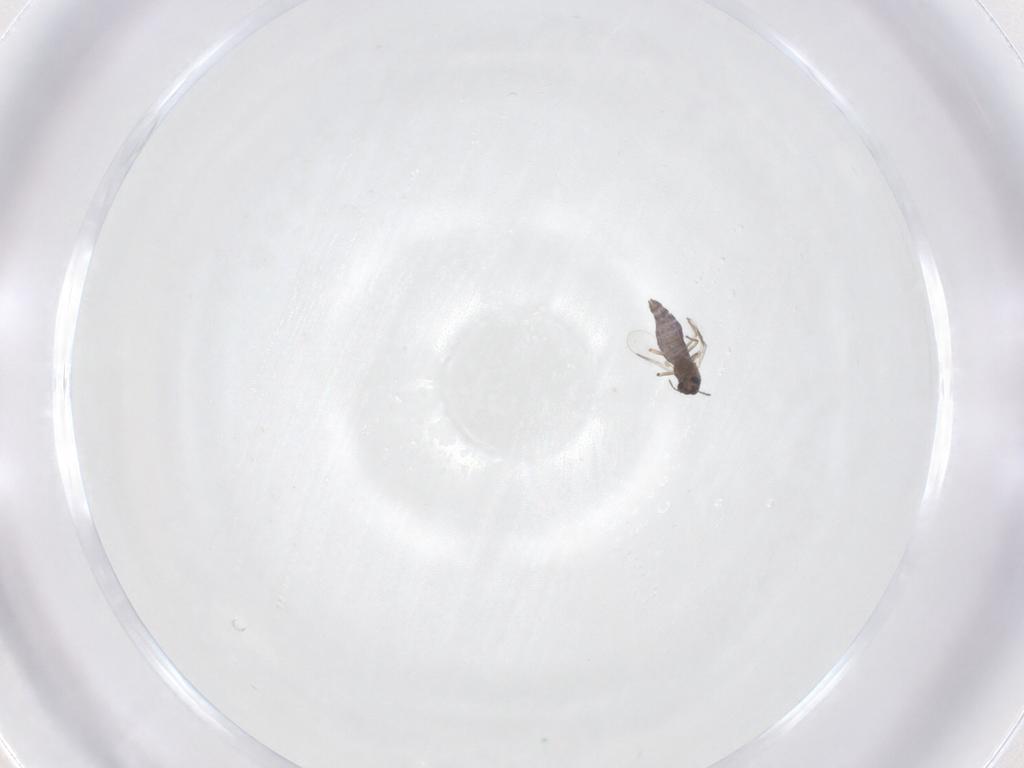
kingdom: Animalia
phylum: Arthropoda
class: Insecta
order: Diptera
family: Chironomidae
